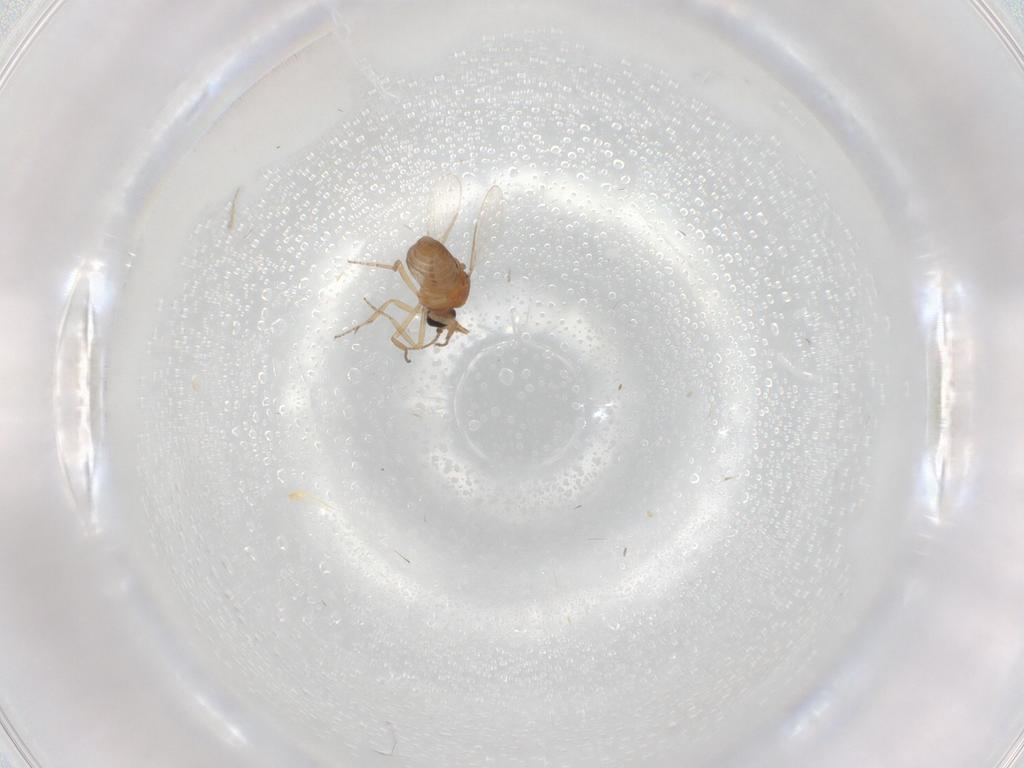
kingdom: Animalia
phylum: Arthropoda
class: Insecta
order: Diptera
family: Ceratopogonidae
